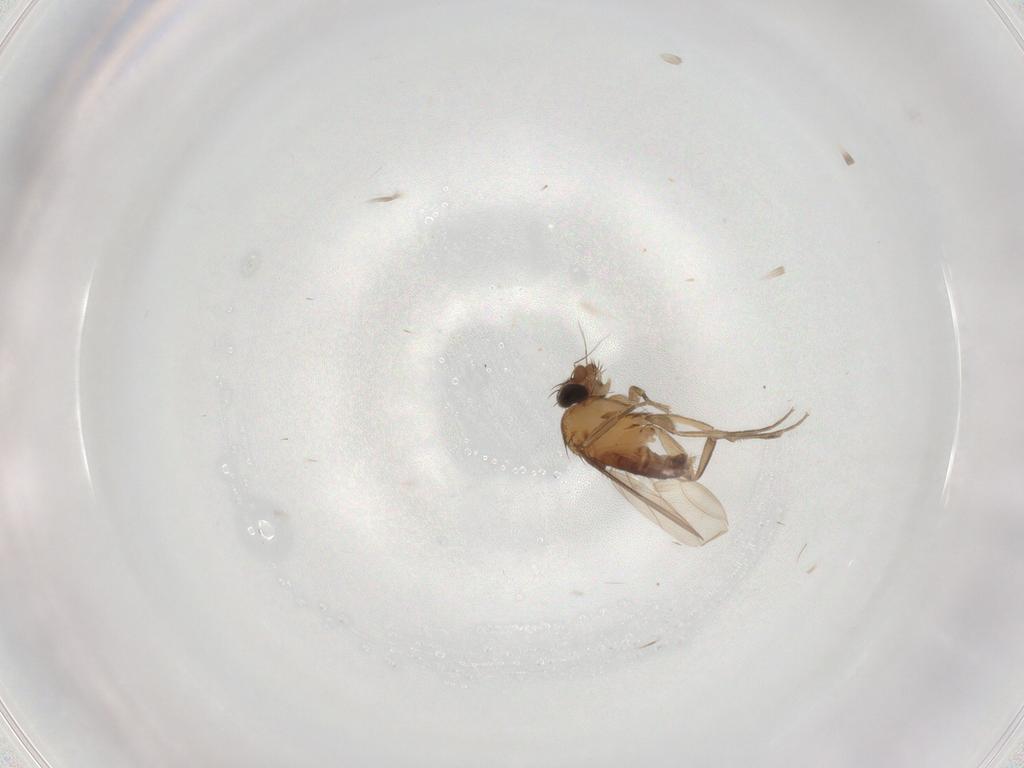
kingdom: Animalia
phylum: Arthropoda
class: Insecta
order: Diptera
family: Phoridae
